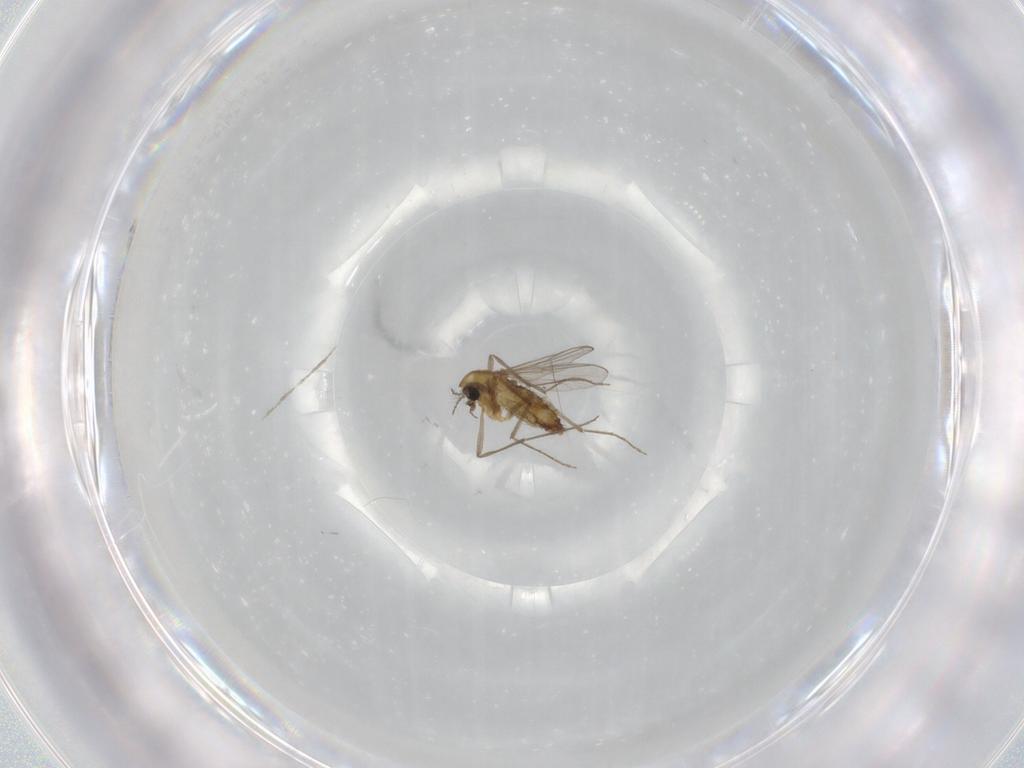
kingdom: Animalia
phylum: Arthropoda
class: Insecta
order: Diptera
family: Chironomidae
